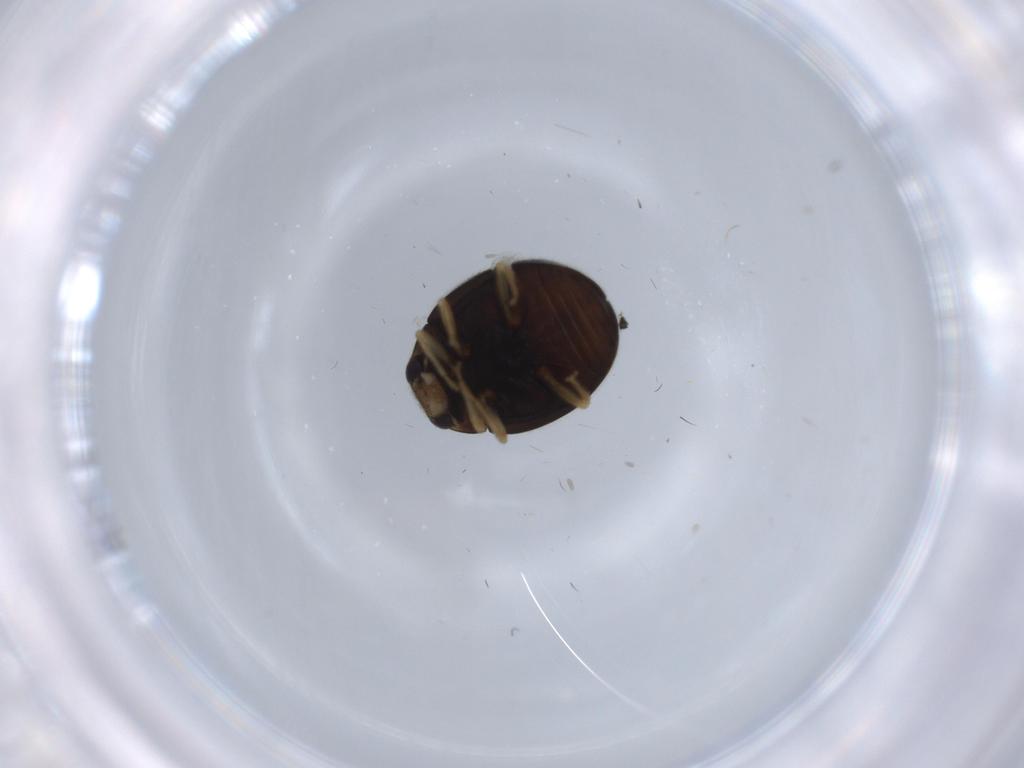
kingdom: Animalia
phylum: Arthropoda
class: Insecta
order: Coleoptera
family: Coccinellidae
